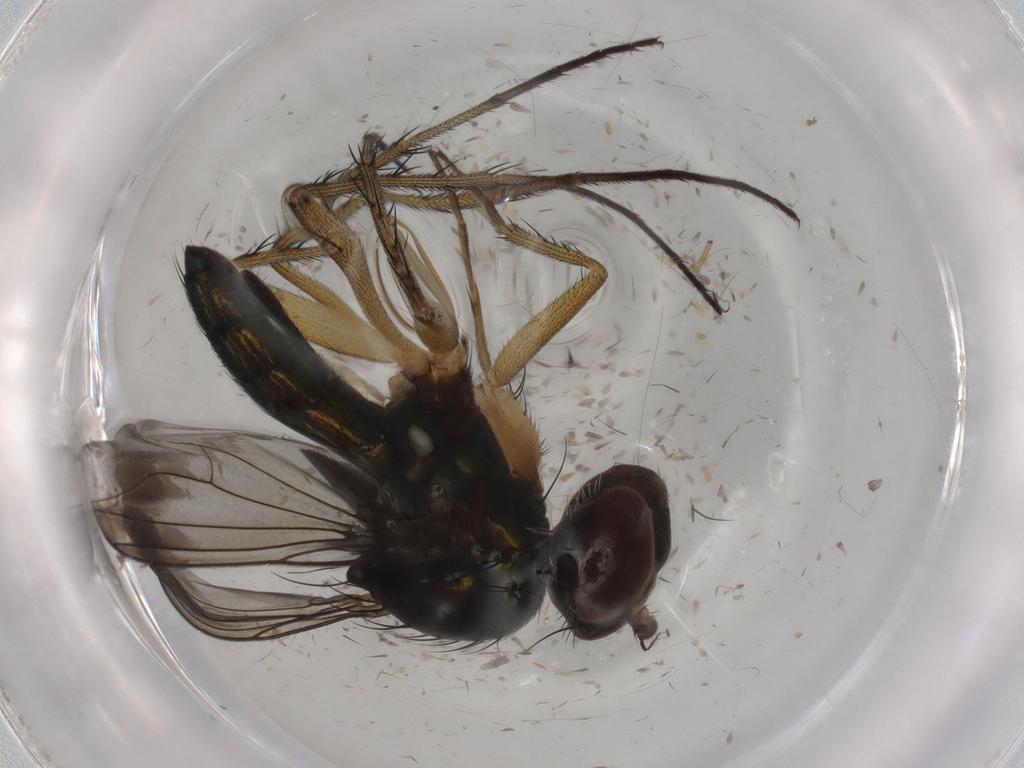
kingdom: Animalia
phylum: Arthropoda
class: Insecta
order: Diptera
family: Dolichopodidae
